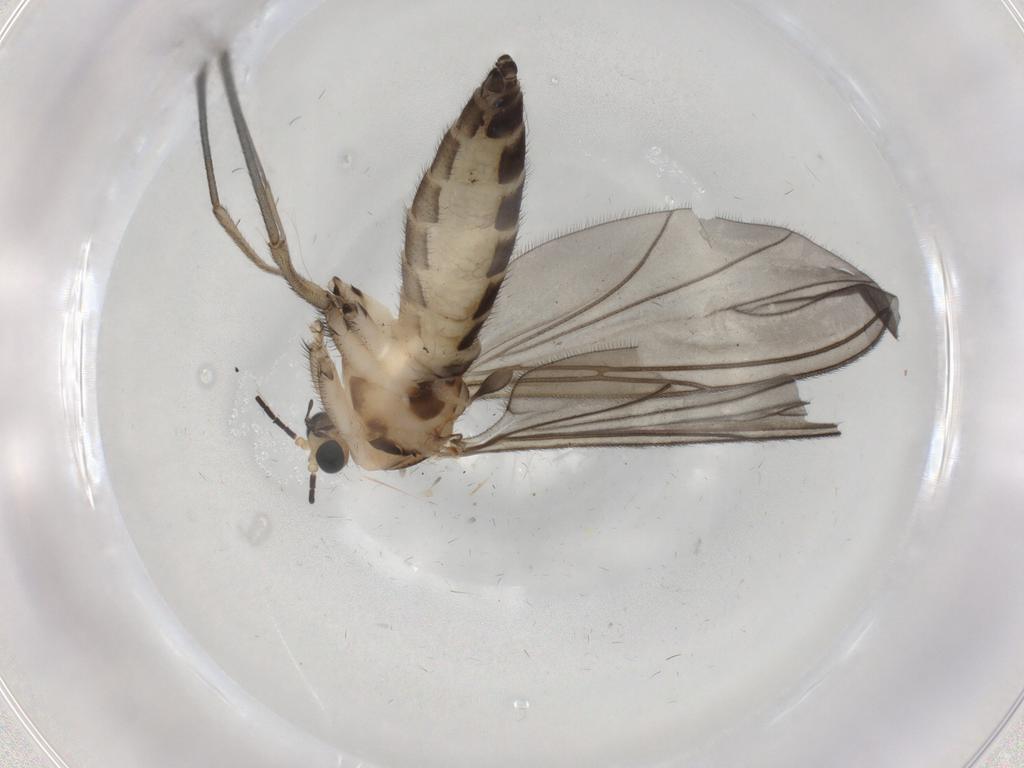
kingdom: Animalia
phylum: Arthropoda
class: Insecta
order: Diptera
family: Sciaridae
